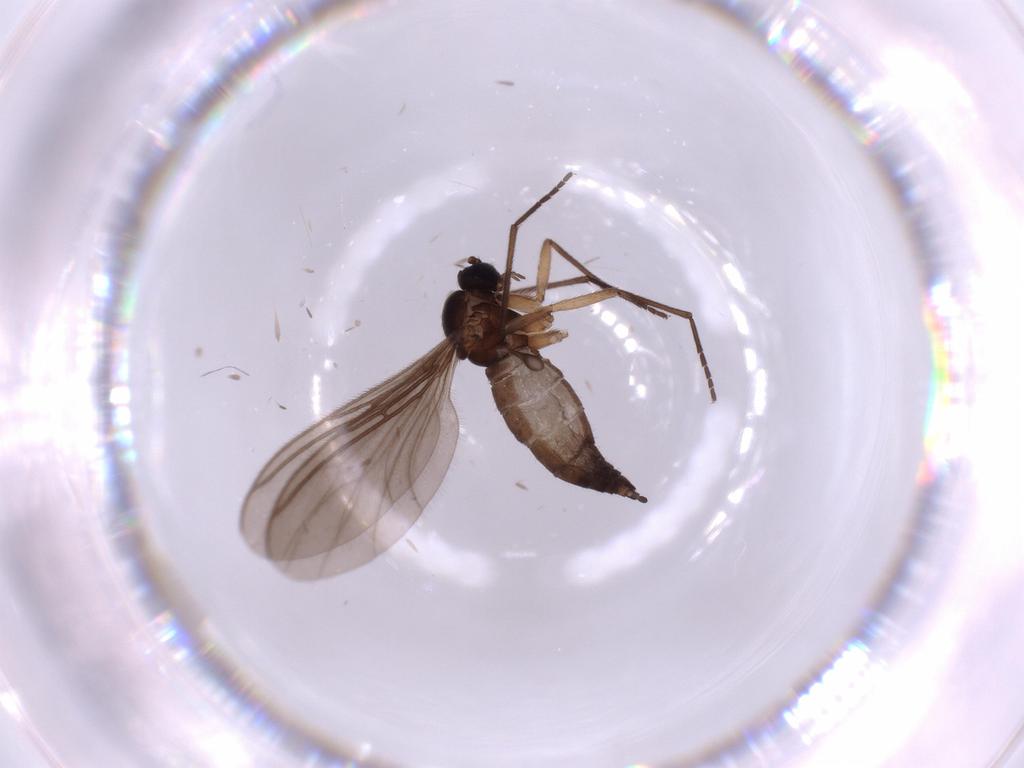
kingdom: Animalia
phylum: Arthropoda
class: Insecta
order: Diptera
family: Sciaridae
